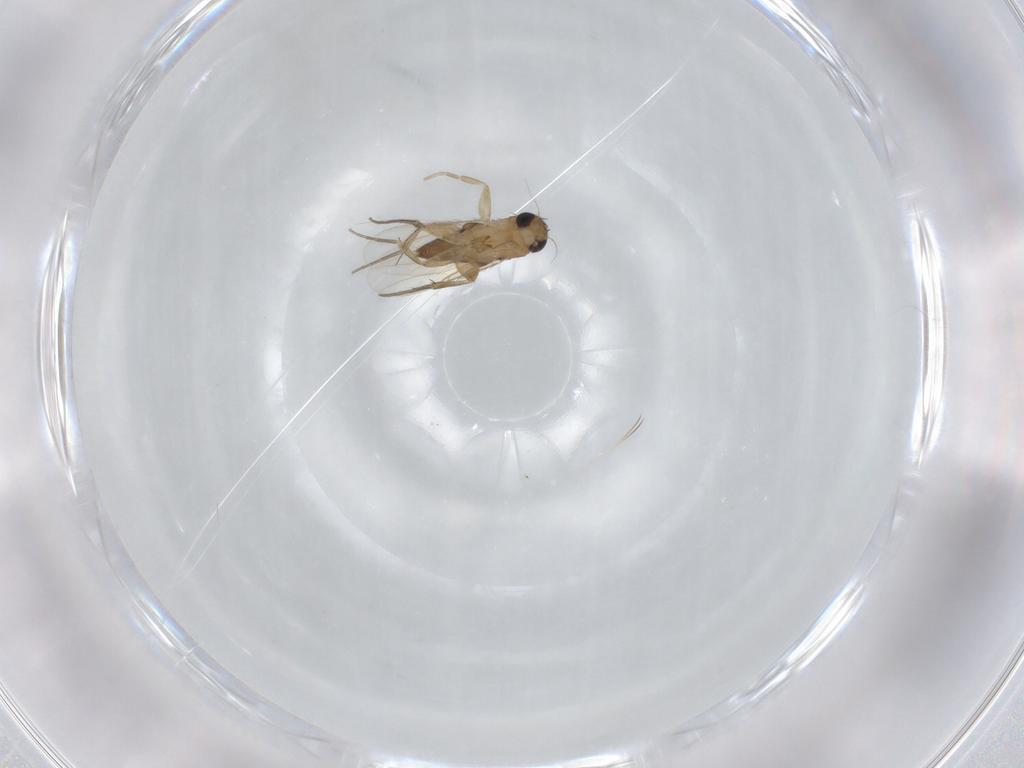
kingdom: Animalia
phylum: Arthropoda
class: Insecta
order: Diptera
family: Phoridae
